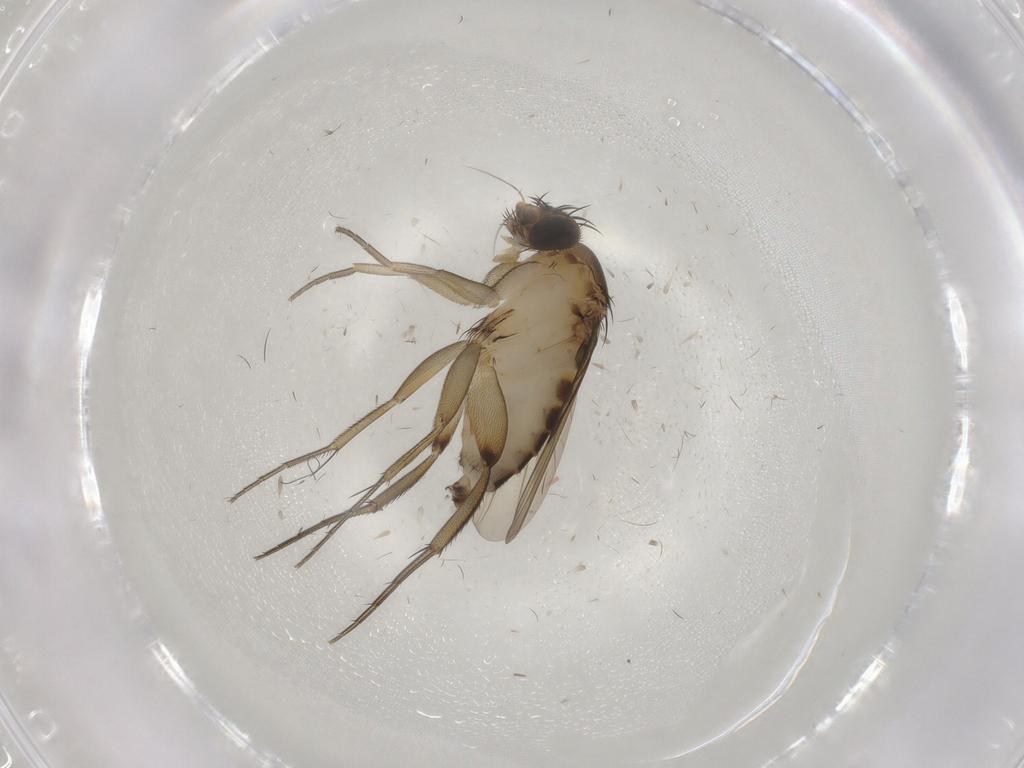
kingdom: Animalia
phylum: Arthropoda
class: Insecta
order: Diptera
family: Phoridae
